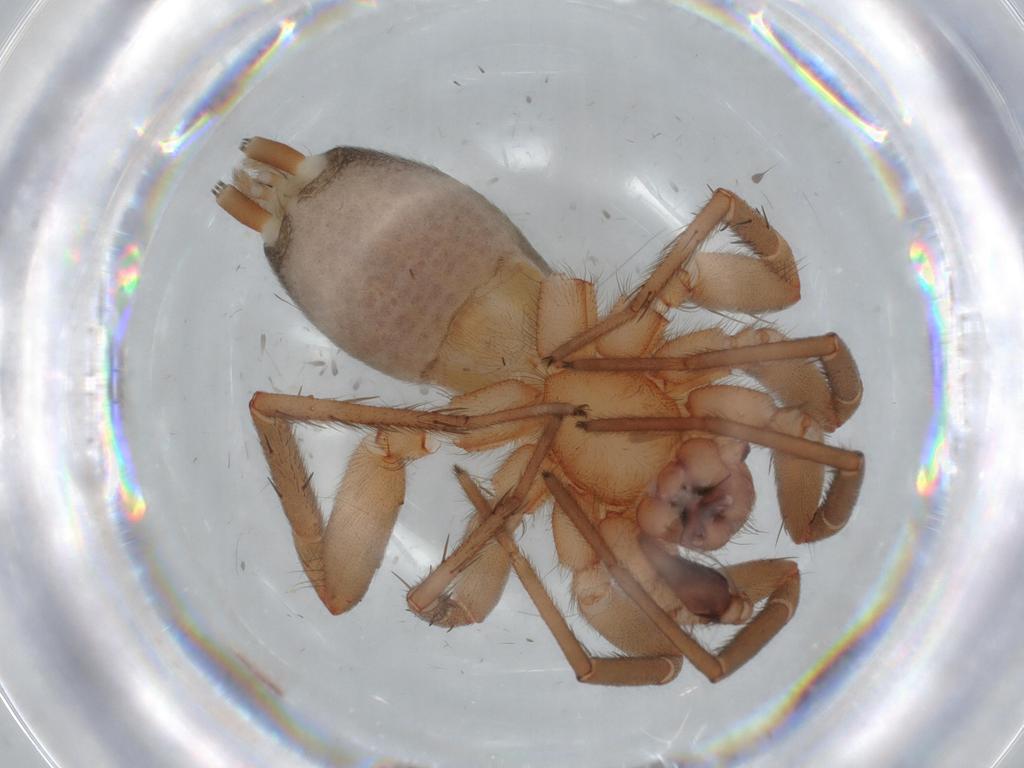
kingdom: Animalia
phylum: Arthropoda
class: Arachnida
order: Araneae
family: Gnaphosidae
